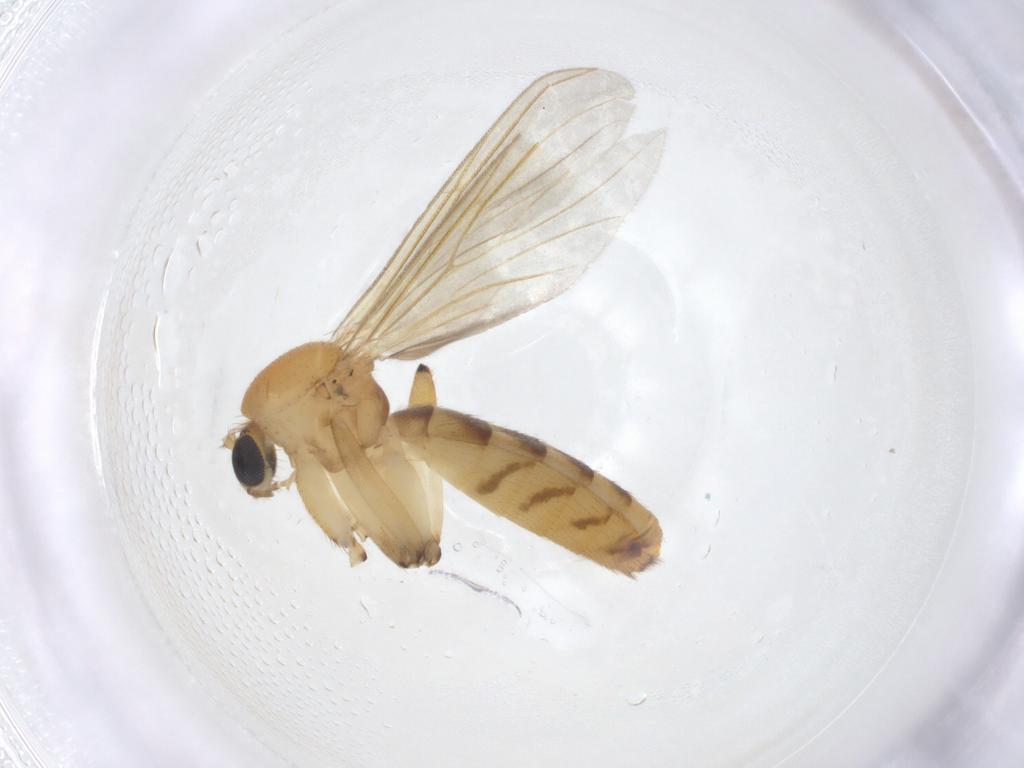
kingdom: Animalia
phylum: Arthropoda
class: Insecta
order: Diptera
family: Mycetophilidae
